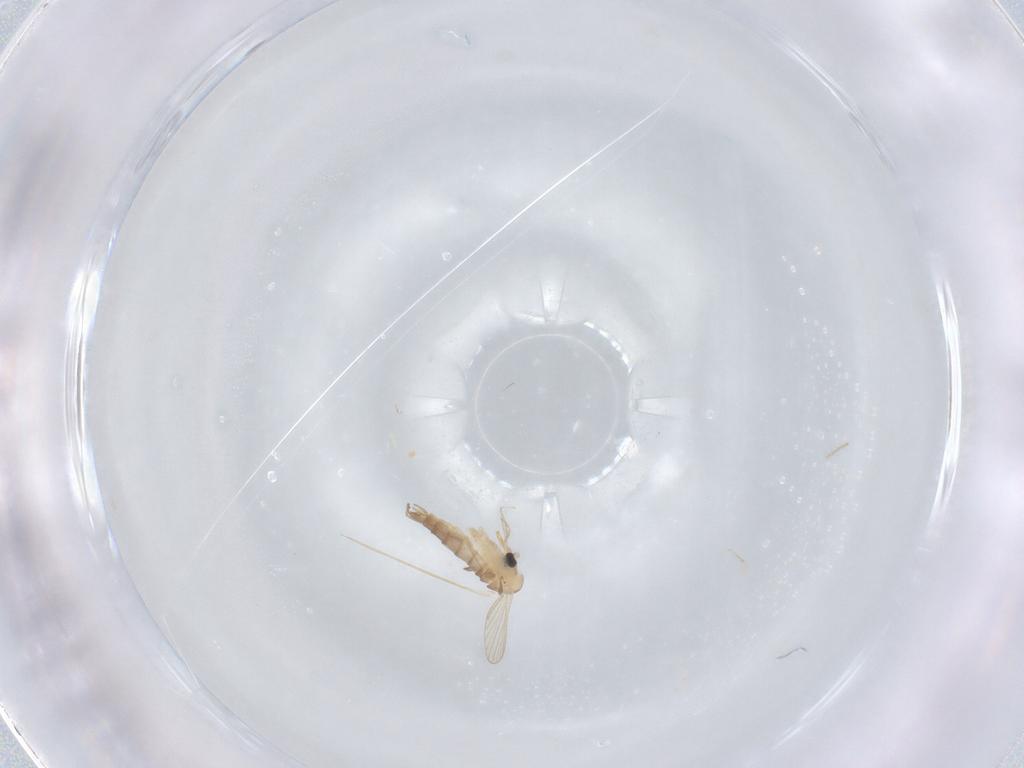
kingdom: Animalia
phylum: Arthropoda
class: Insecta
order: Diptera
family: Psychodidae
